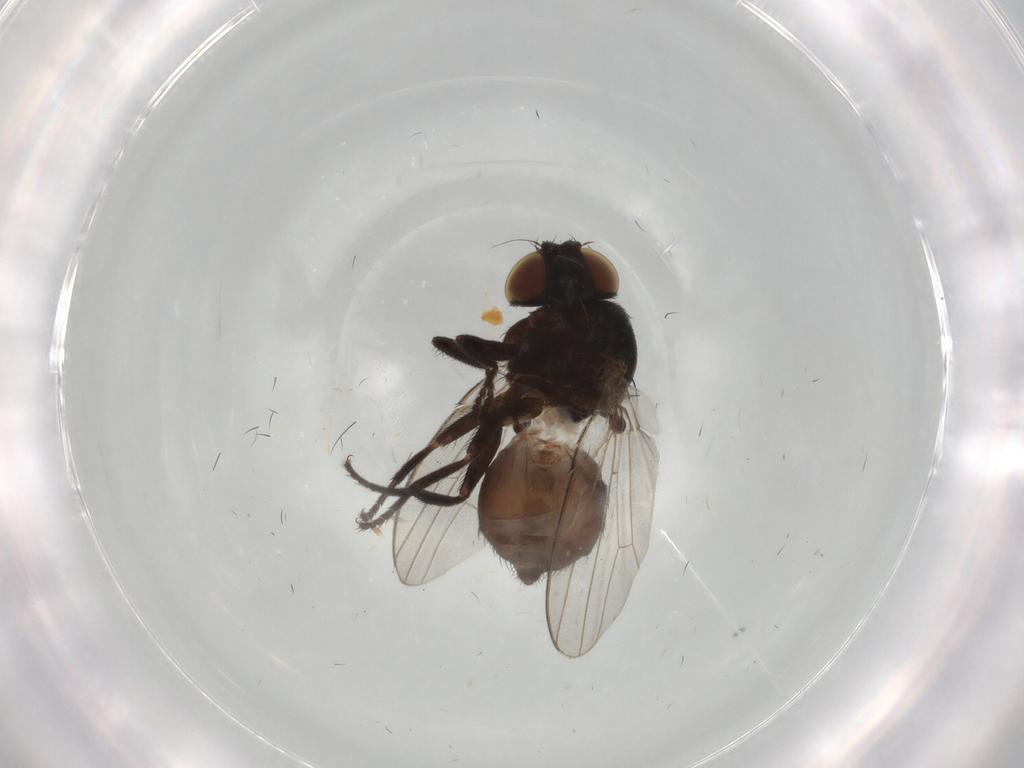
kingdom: Animalia
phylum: Arthropoda
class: Insecta
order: Diptera
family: Milichiidae
